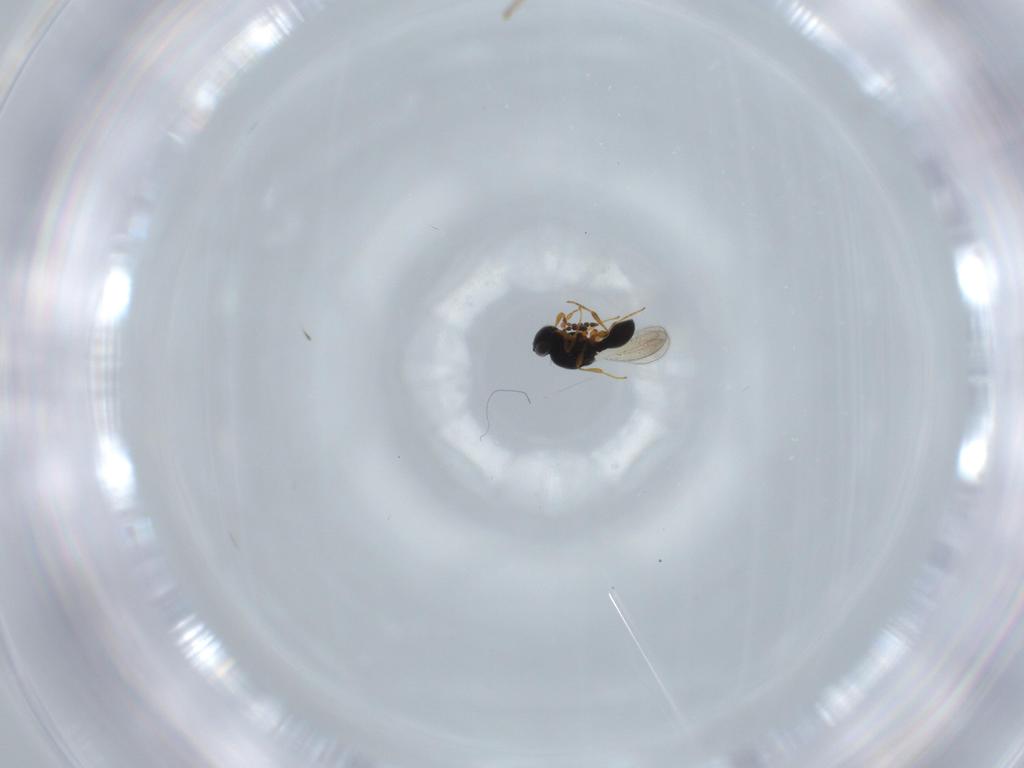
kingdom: Animalia
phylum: Arthropoda
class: Insecta
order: Hymenoptera
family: Platygastridae
